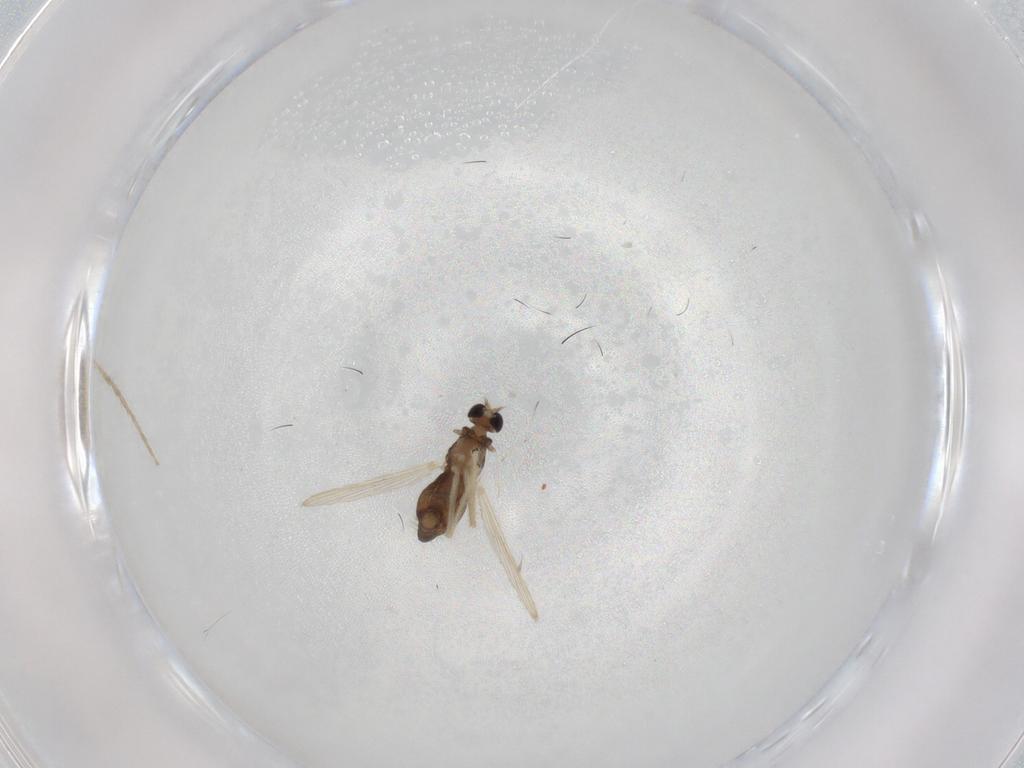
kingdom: Animalia
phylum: Arthropoda
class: Insecta
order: Diptera
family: Chironomidae
